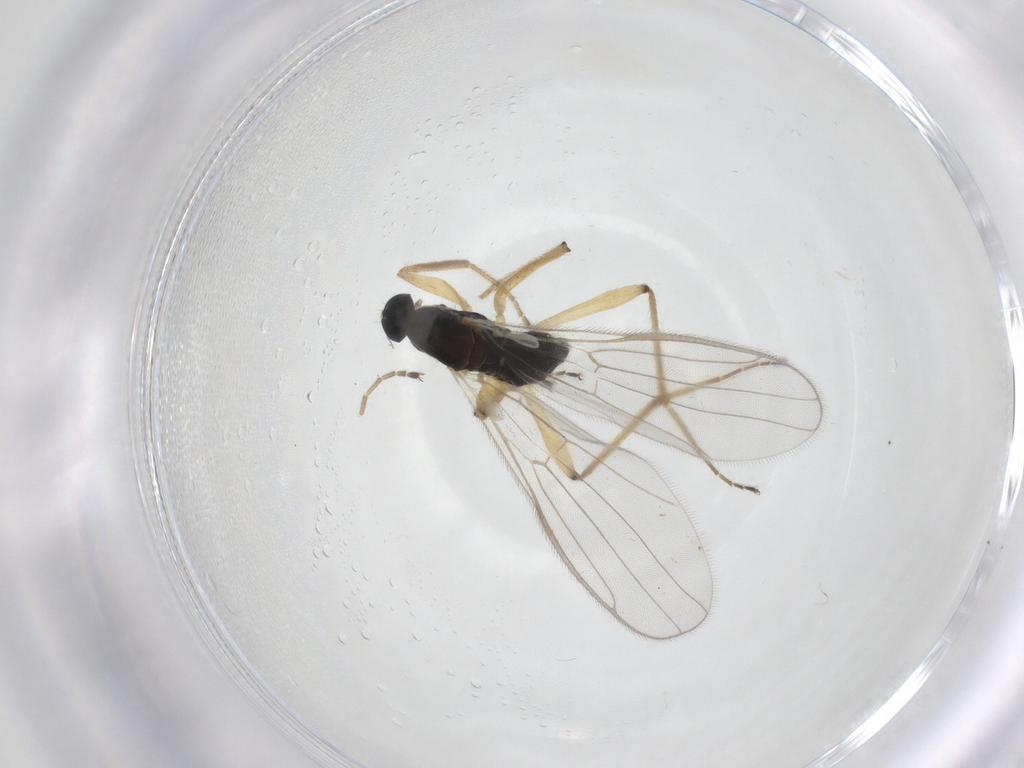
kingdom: Animalia
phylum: Arthropoda
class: Insecta
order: Diptera
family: Hybotidae
